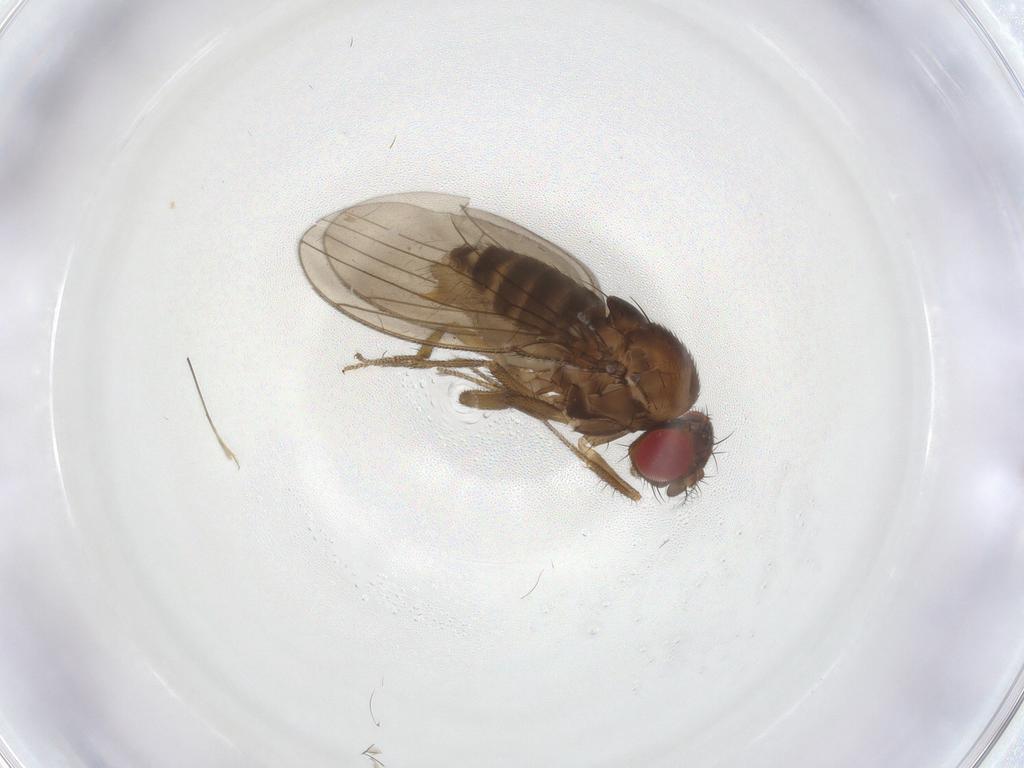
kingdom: Animalia
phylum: Arthropoda
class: Insecta
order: Diptera
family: Drosophilidae
